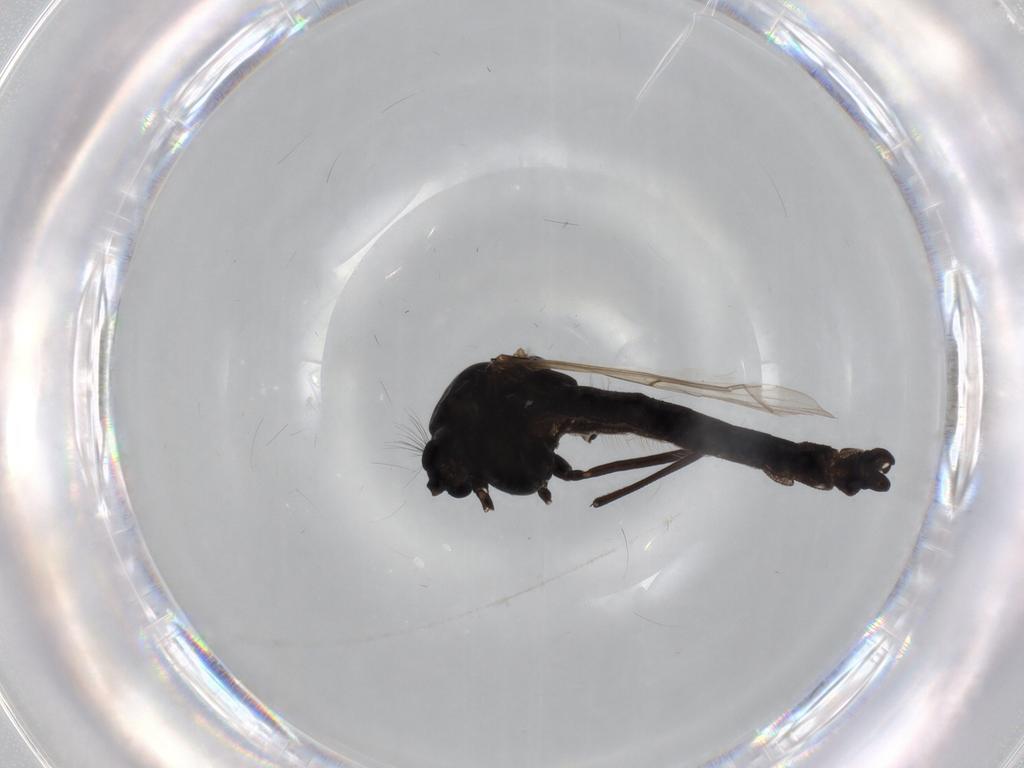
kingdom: Animalia
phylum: Arthropoda
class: Insecta
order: Diptera
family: Chironomidae
